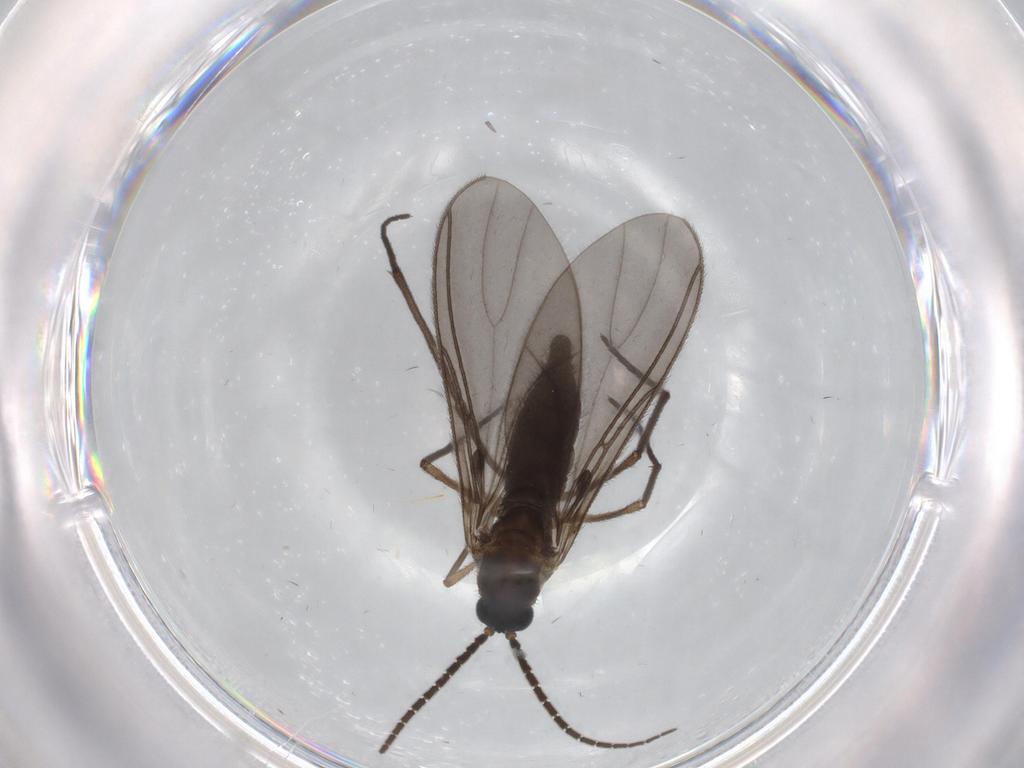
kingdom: Animalia
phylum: Arthropoda
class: Insecta
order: Diptera
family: Sciaridae
